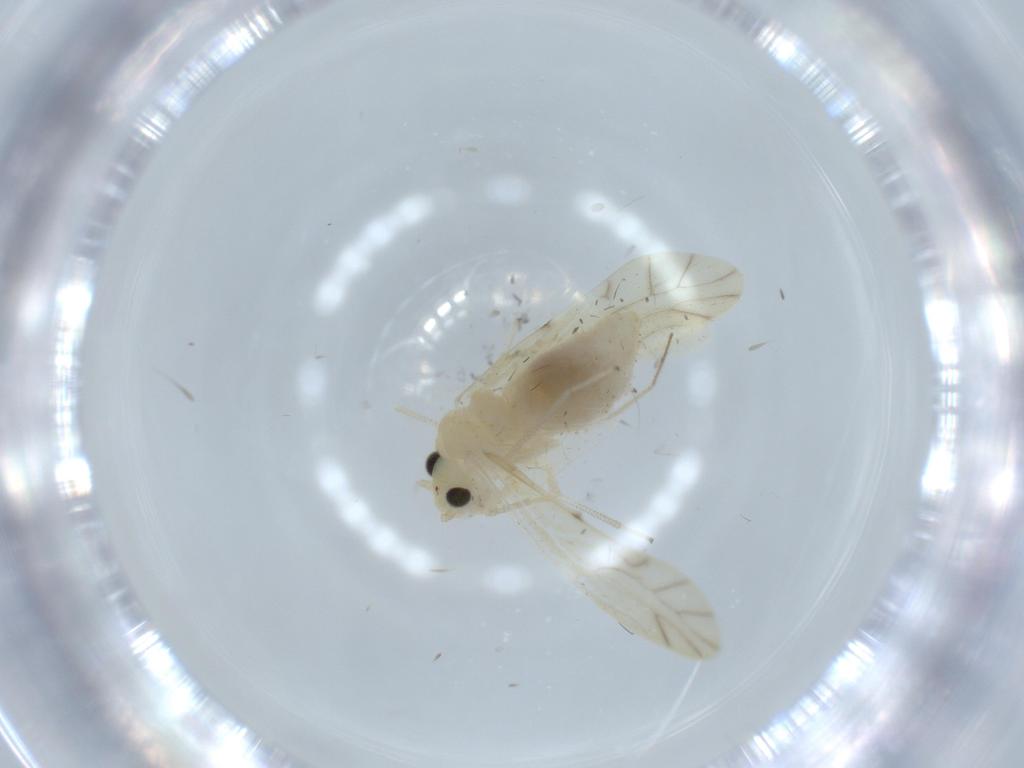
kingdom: Animalia
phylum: Arthropoda
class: Insecta
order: Psocodea
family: Caeciliusidae
